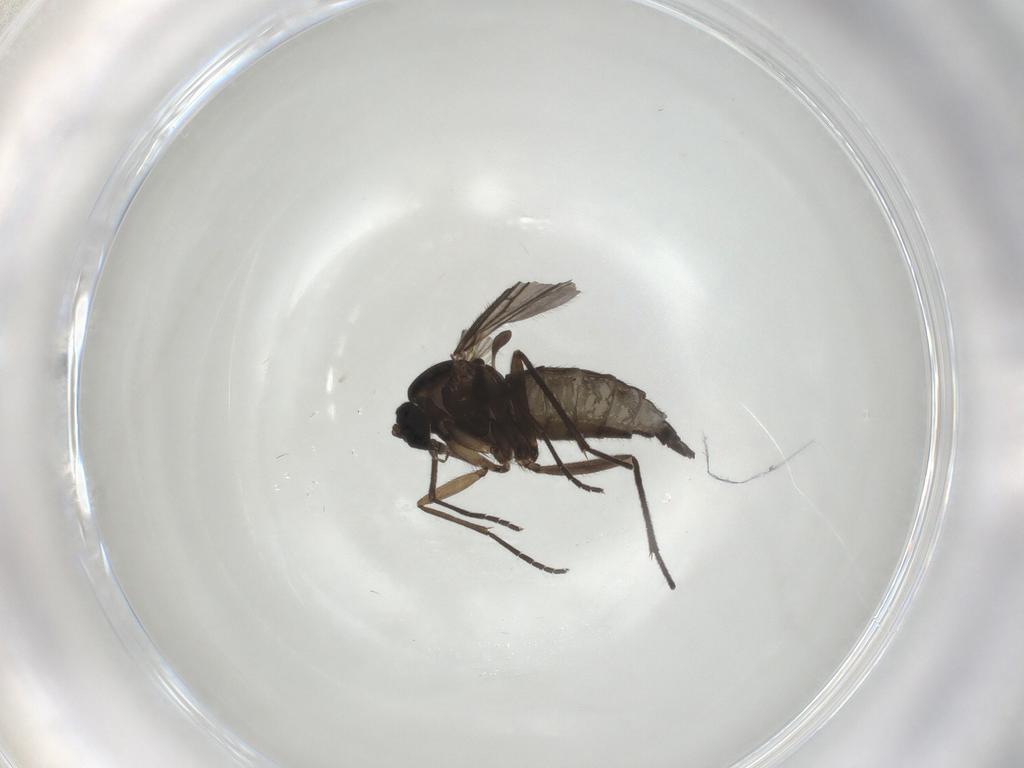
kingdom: Animalia
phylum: Arthropoda
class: Insecta
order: Diptera
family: Sciaridae
